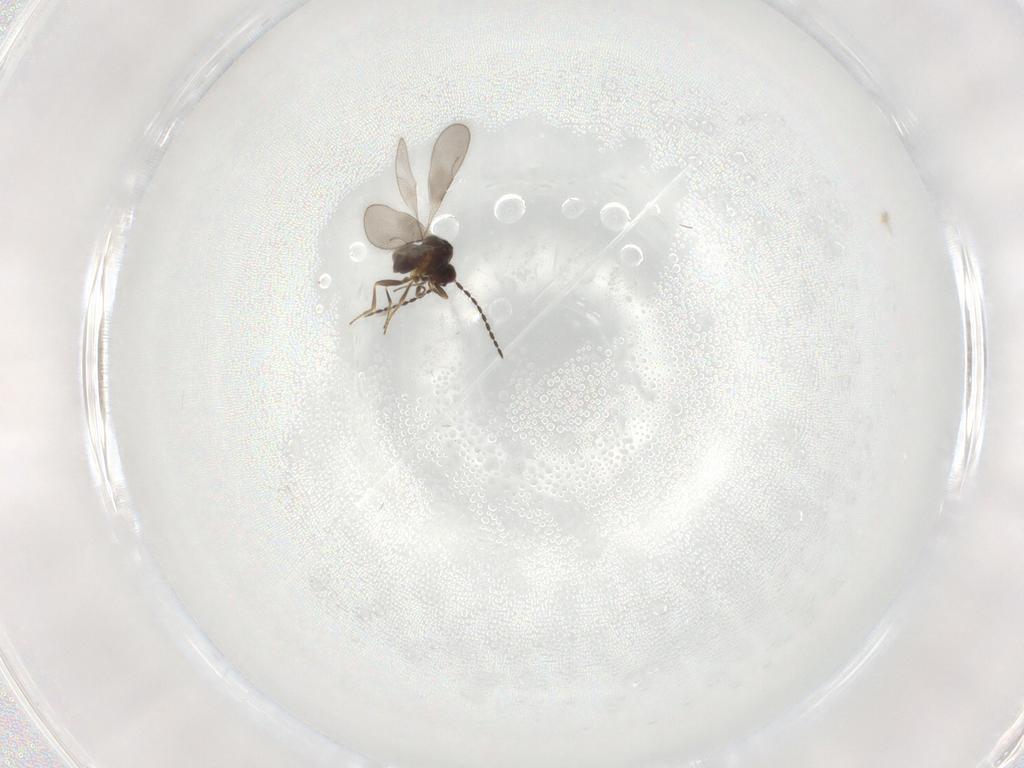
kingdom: Animalia
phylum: Arthropoda
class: Insecta
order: Hymenoptera
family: Ceraphronidae
